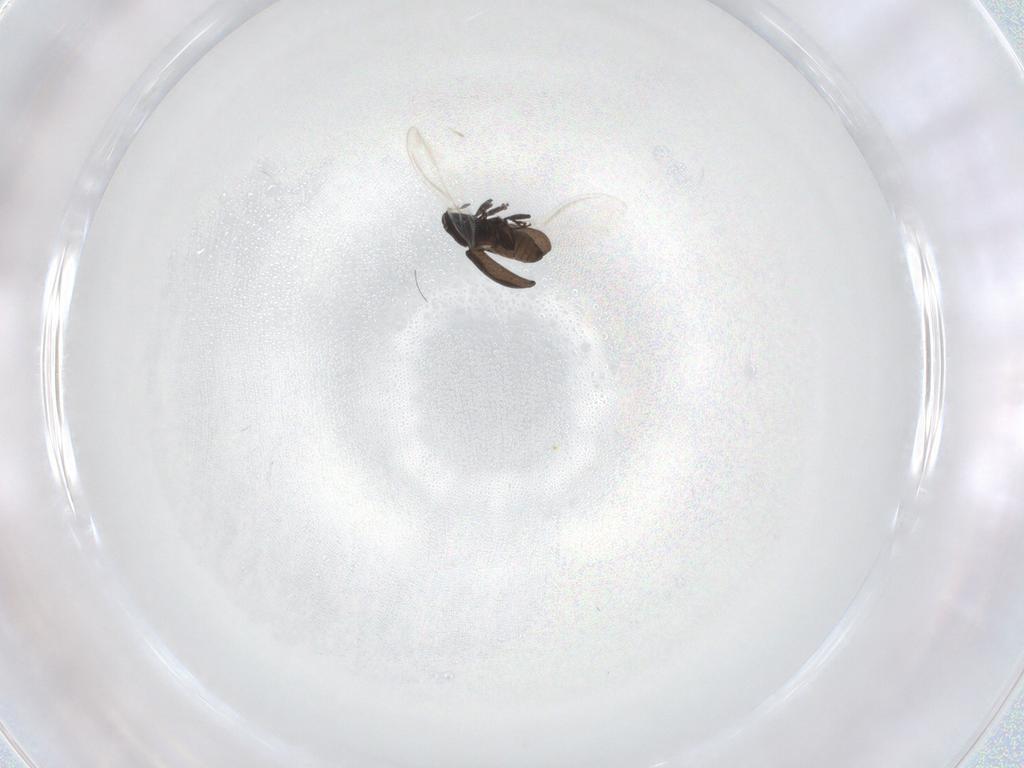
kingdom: Animalia
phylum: Arthropoda
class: Insecta
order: Coleoptera
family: Curculionidae
